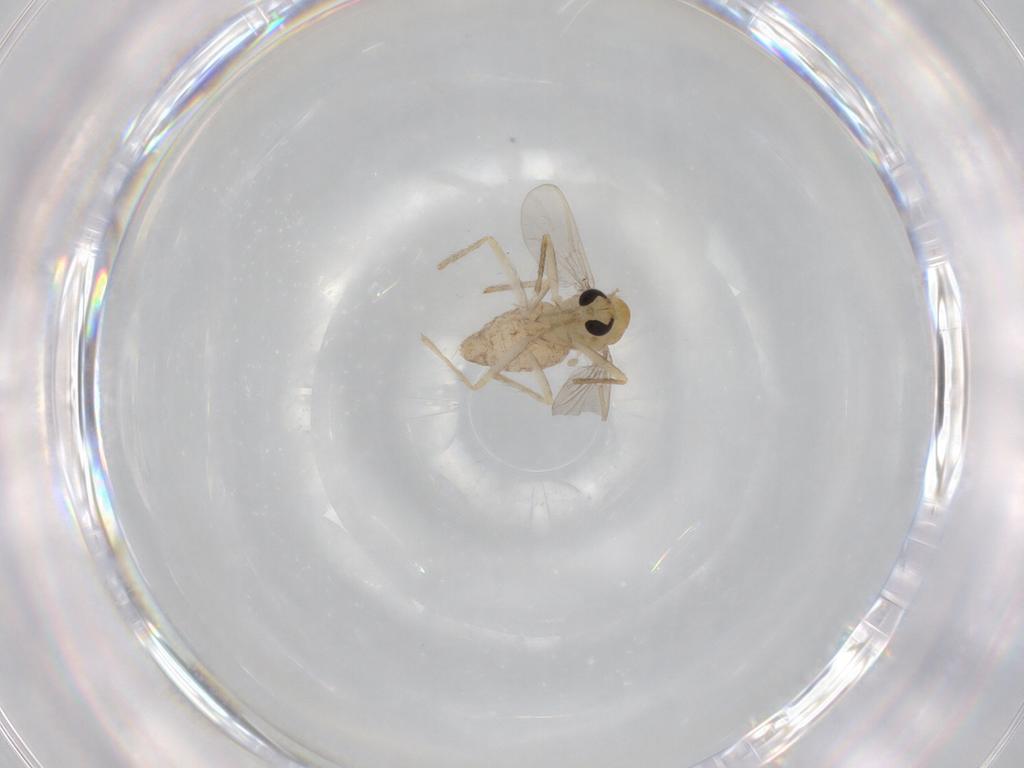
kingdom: Animalia
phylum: Arthropoda
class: Insecta
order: Diptera
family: Chironomidae
